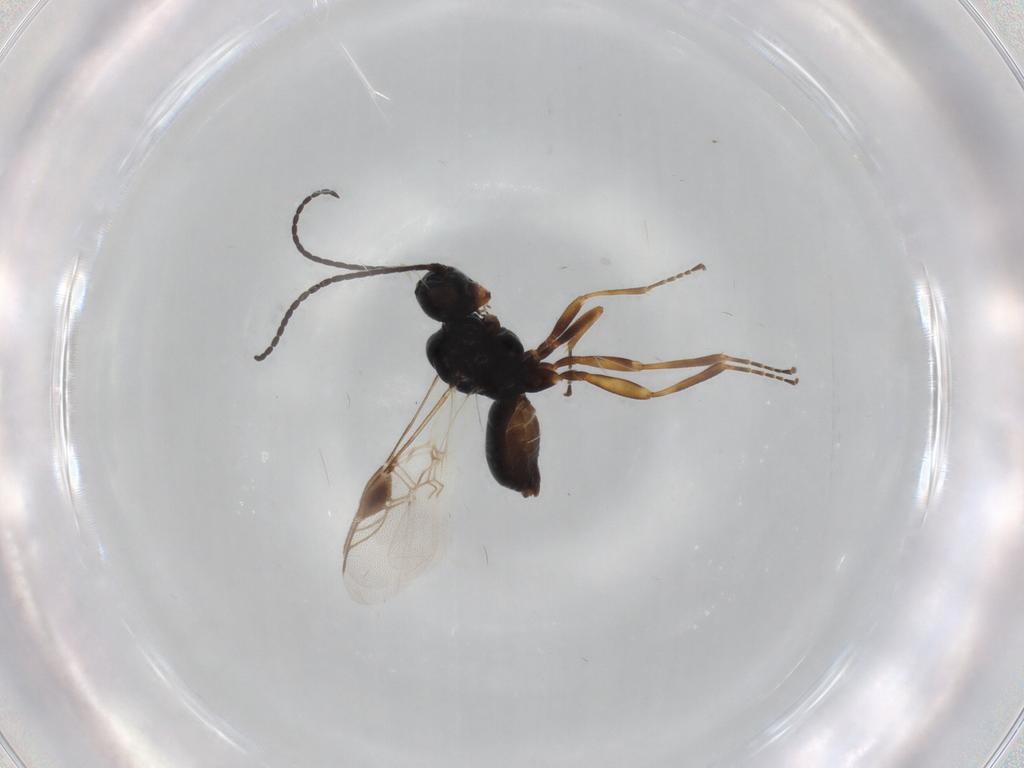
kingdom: Animalia
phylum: Arthropoda
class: Insecta
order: Hymenoptera
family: Braconidae
